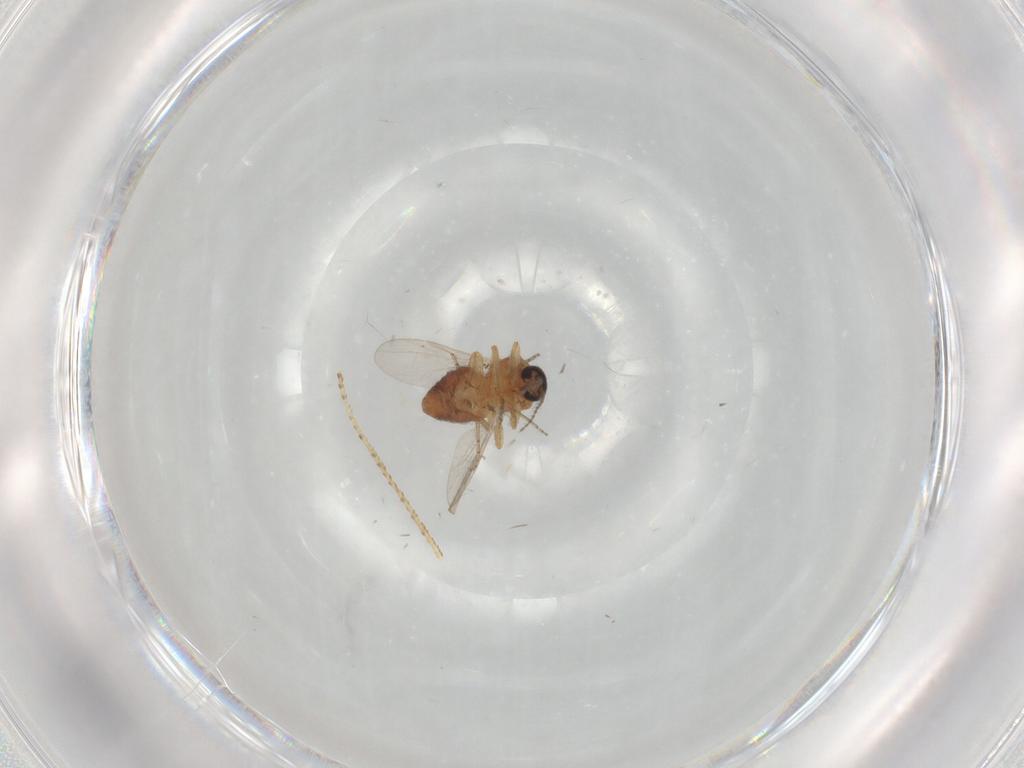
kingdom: Animalia
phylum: Arthropoda
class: Insecta
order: Diptera
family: Ceratopogonidae
